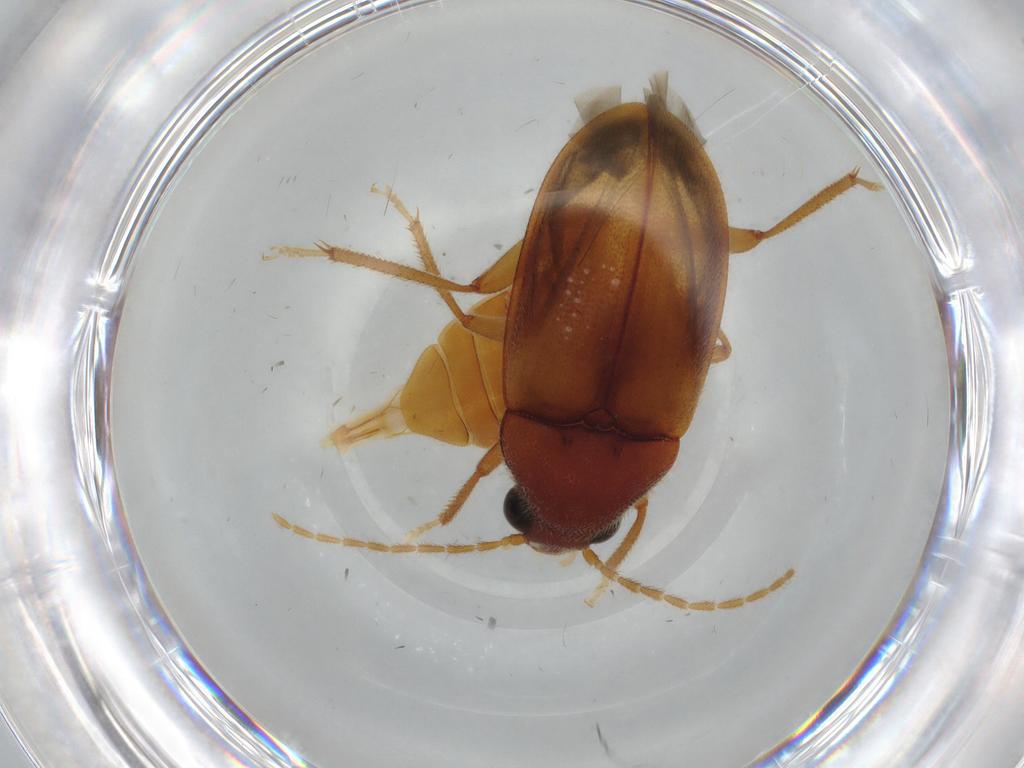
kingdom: Animalia
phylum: Arthropoda
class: Insecta
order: Coleoptera
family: Ptilodactylidae
